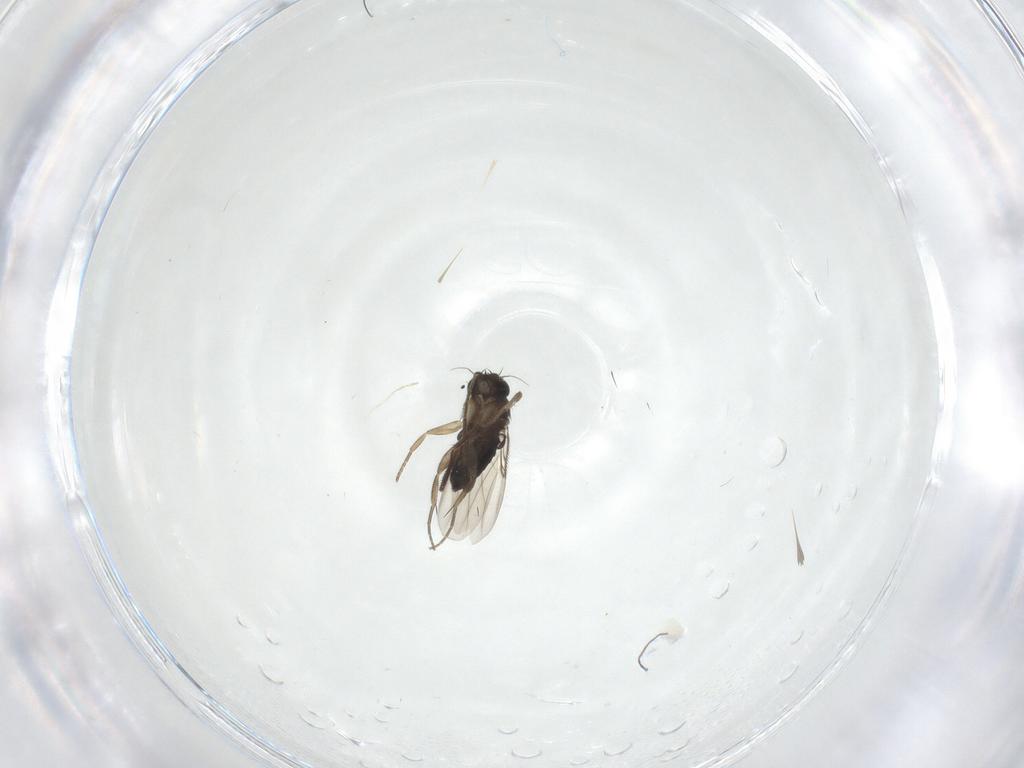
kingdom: Animalia
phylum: Arthropoda
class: Insecta
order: Diptera
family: Phoridae
